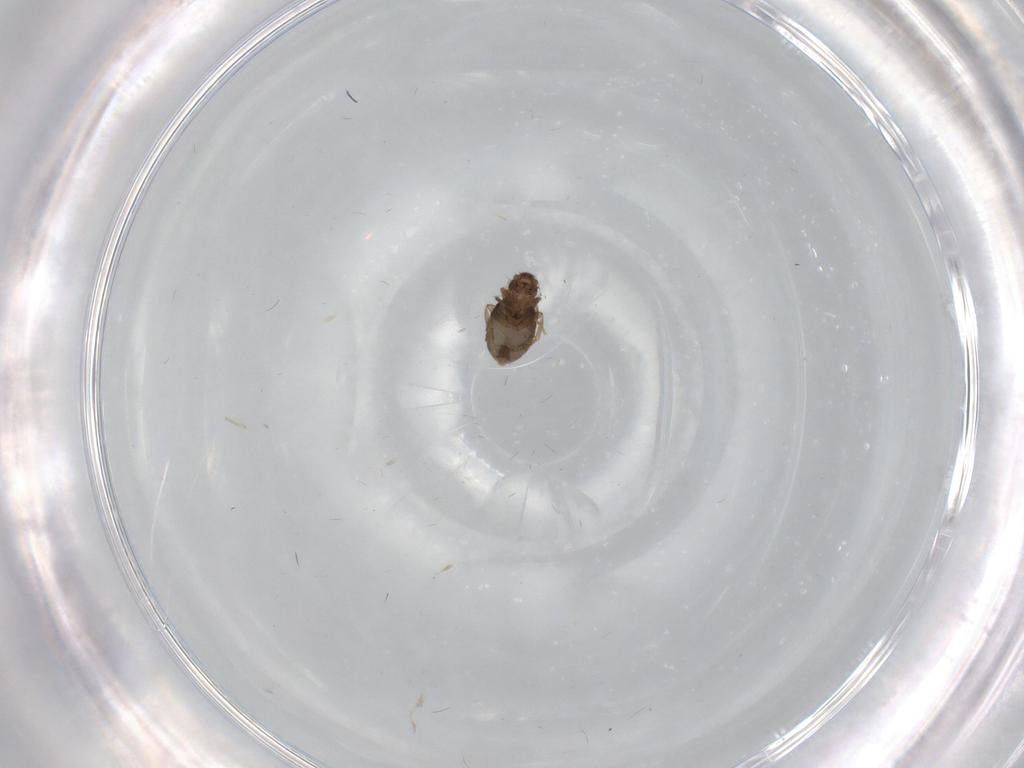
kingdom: Animalia
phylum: Arthropoda
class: Insecta
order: Diptera
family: Dolichopodidae
